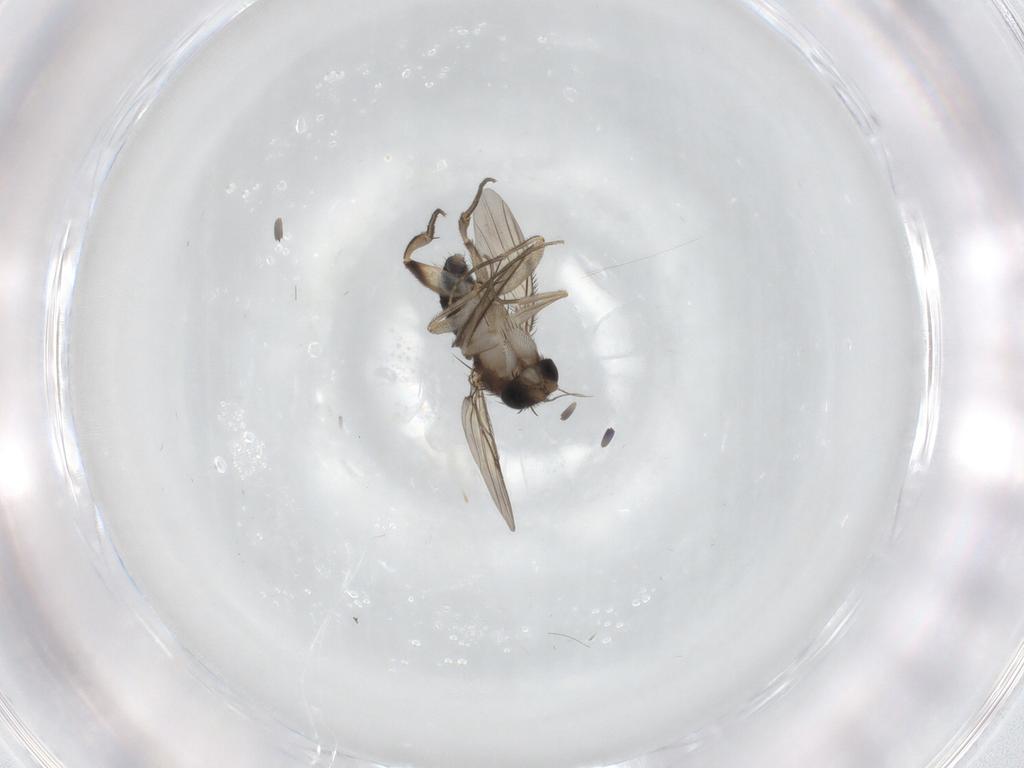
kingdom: Animalia
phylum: Arthropoda
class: Insecta
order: Diptera
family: Phoridae
